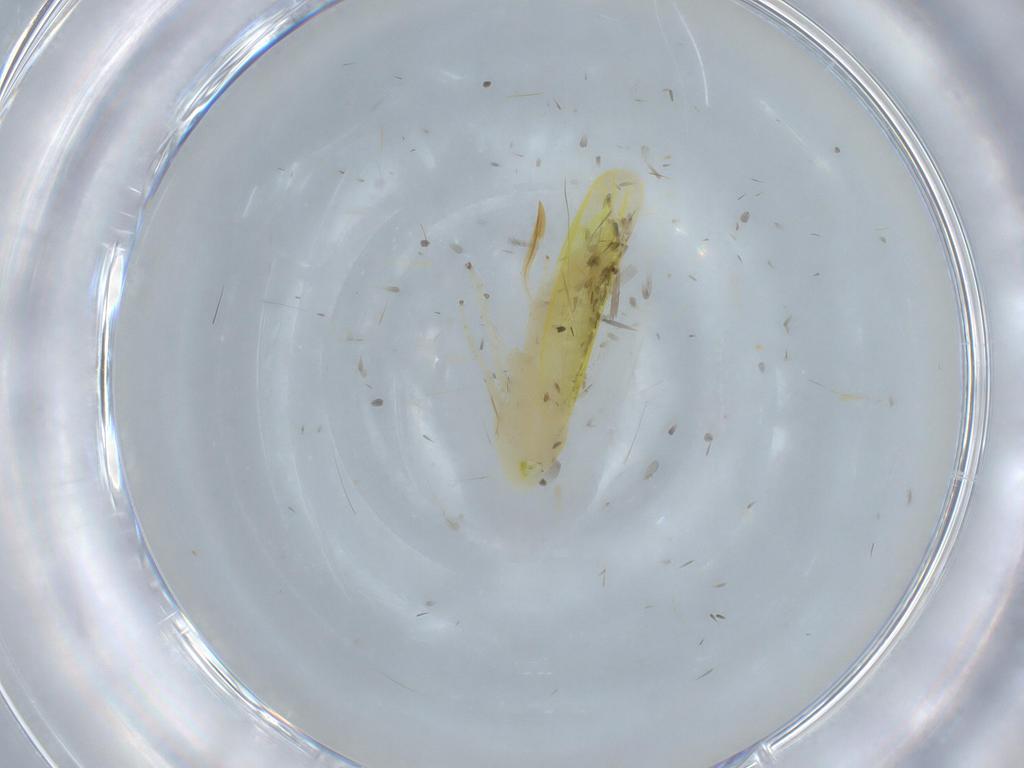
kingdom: Animalia
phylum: Arthropoda
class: Insecta
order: Hemiptera
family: Cicadellidae
